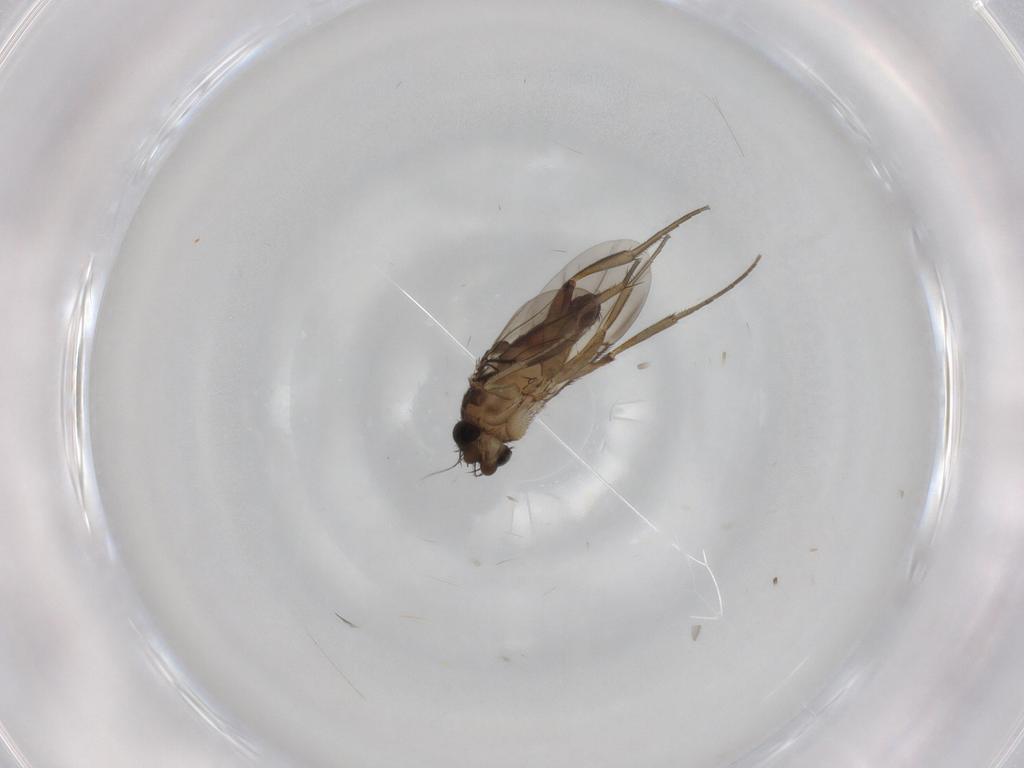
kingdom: Animalia
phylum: Arthropoda
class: Insecta
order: Diptera
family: Phoridae
